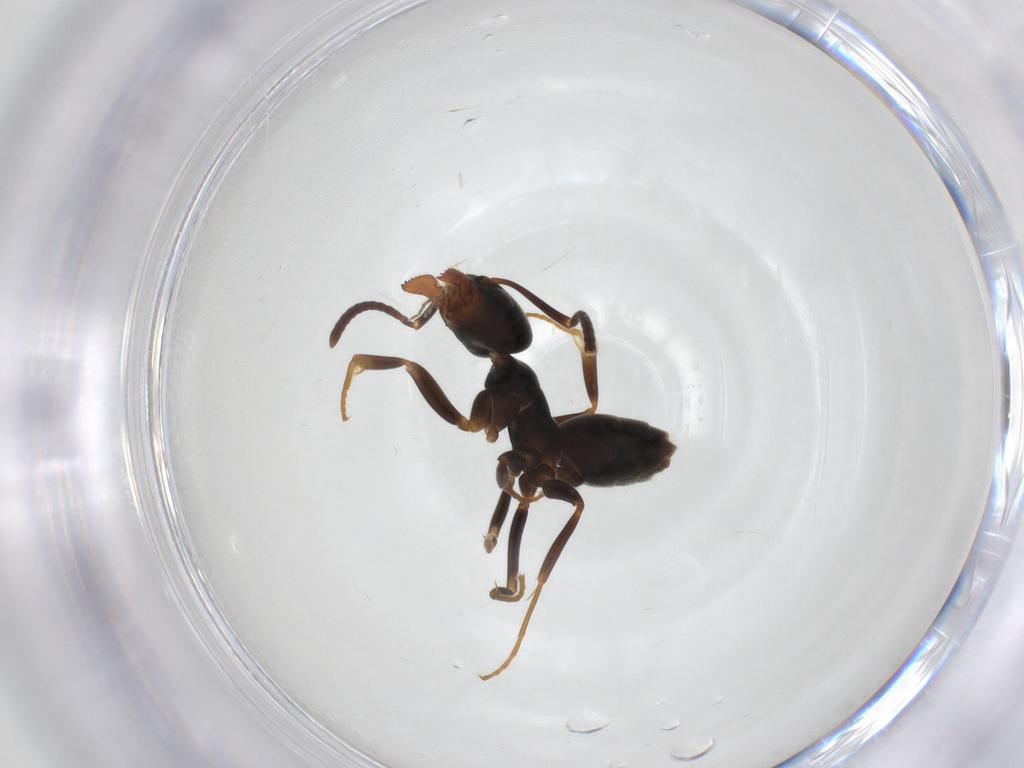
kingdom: Animalia
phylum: Arthropoda
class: Insecta
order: Hymenoptera
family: Formicidae
